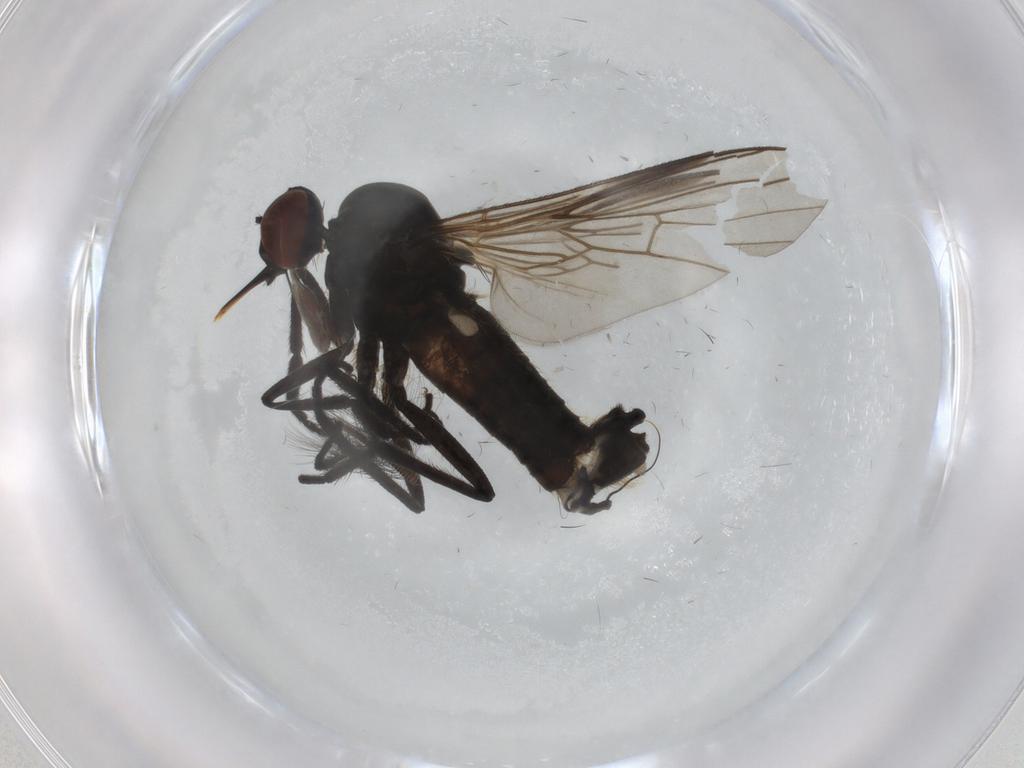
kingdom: Animalia
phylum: Arthropoda
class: Insecta
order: Diptera
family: Empididae
